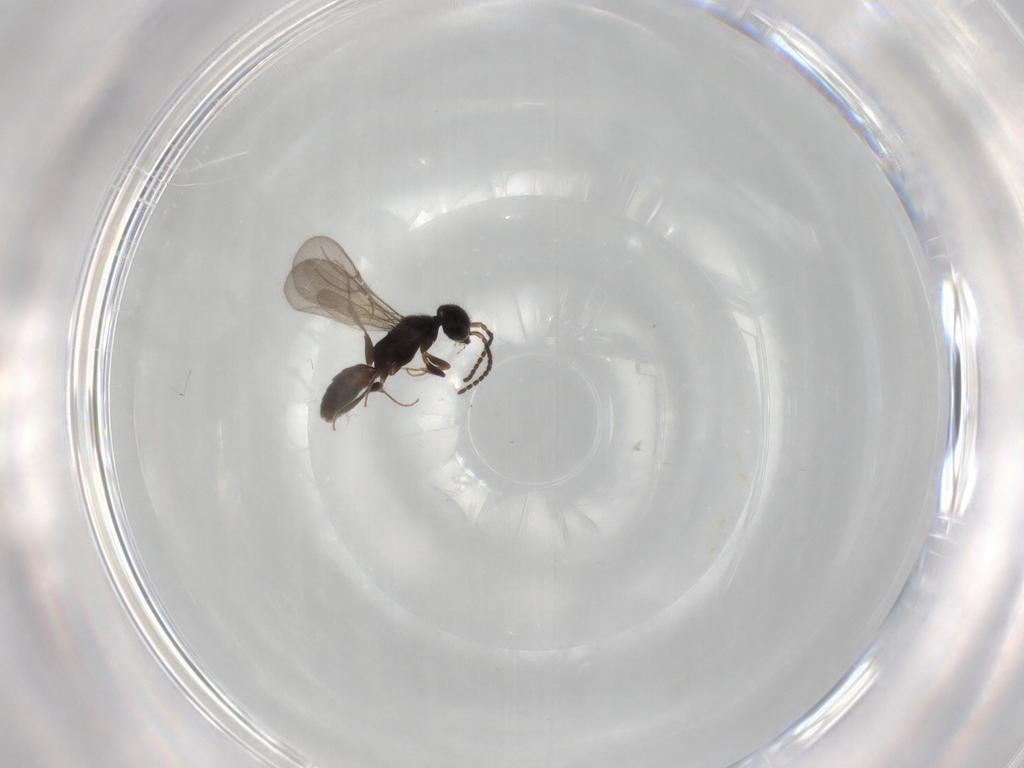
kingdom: Animalia
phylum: Arthropoda
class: Insecta
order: Hymenoptera
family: Bethylidae
